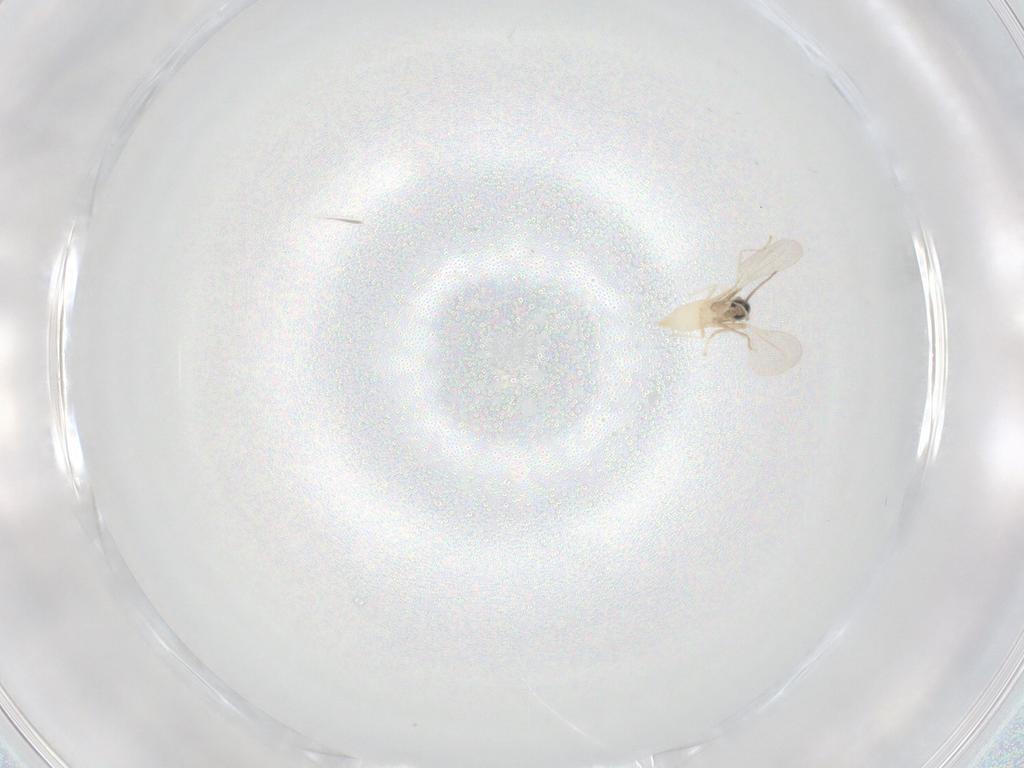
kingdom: Animalia
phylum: Arthropoda
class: Insecta
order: Diptera
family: Cecidomyiidae
